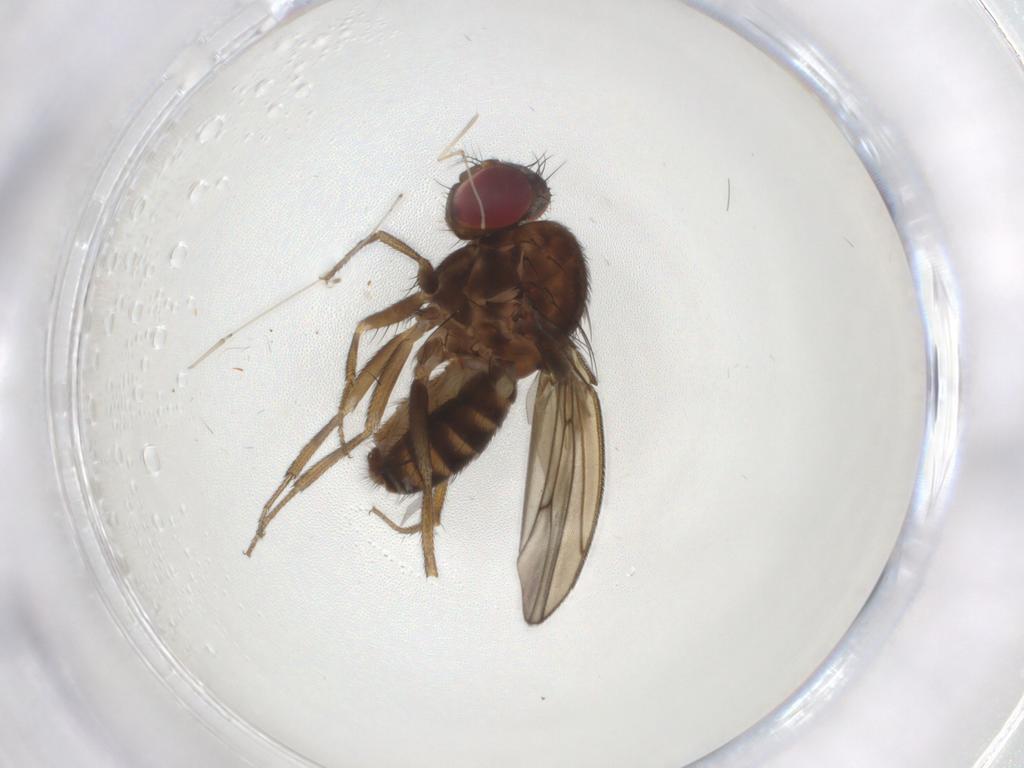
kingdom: Animalia
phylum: Arthropoda
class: Insecta
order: Diptera
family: Drosophilidae
